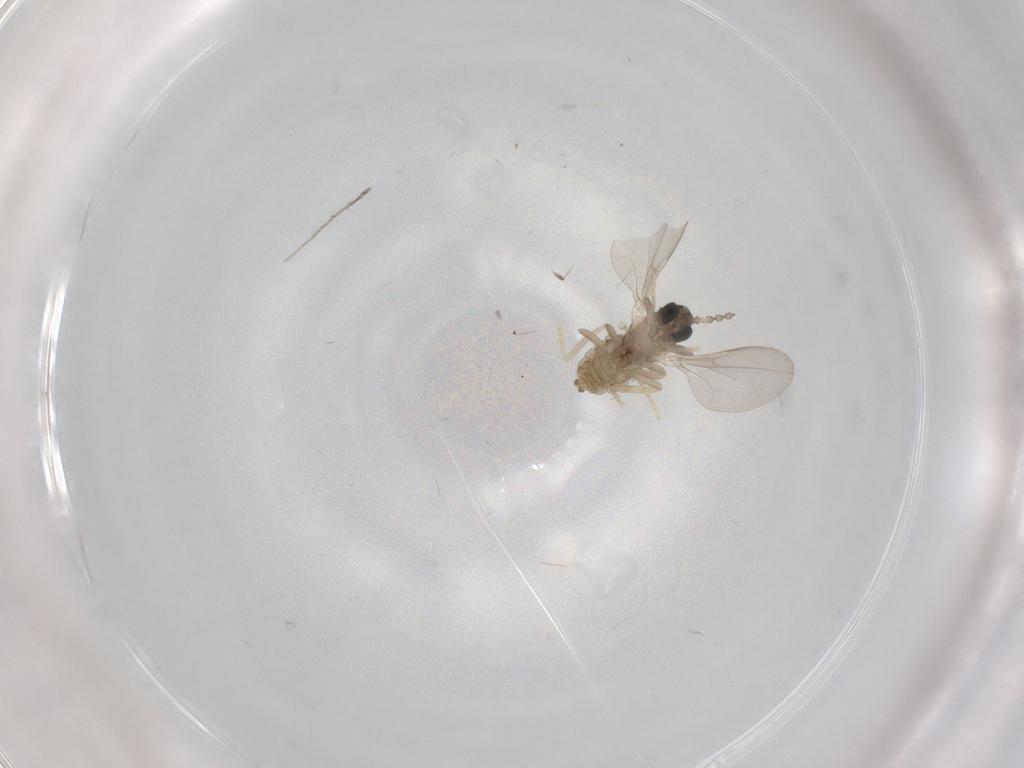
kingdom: Animalia
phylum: Arthropoda
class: Insecta
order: Diptera
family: Cecidomyiidae
